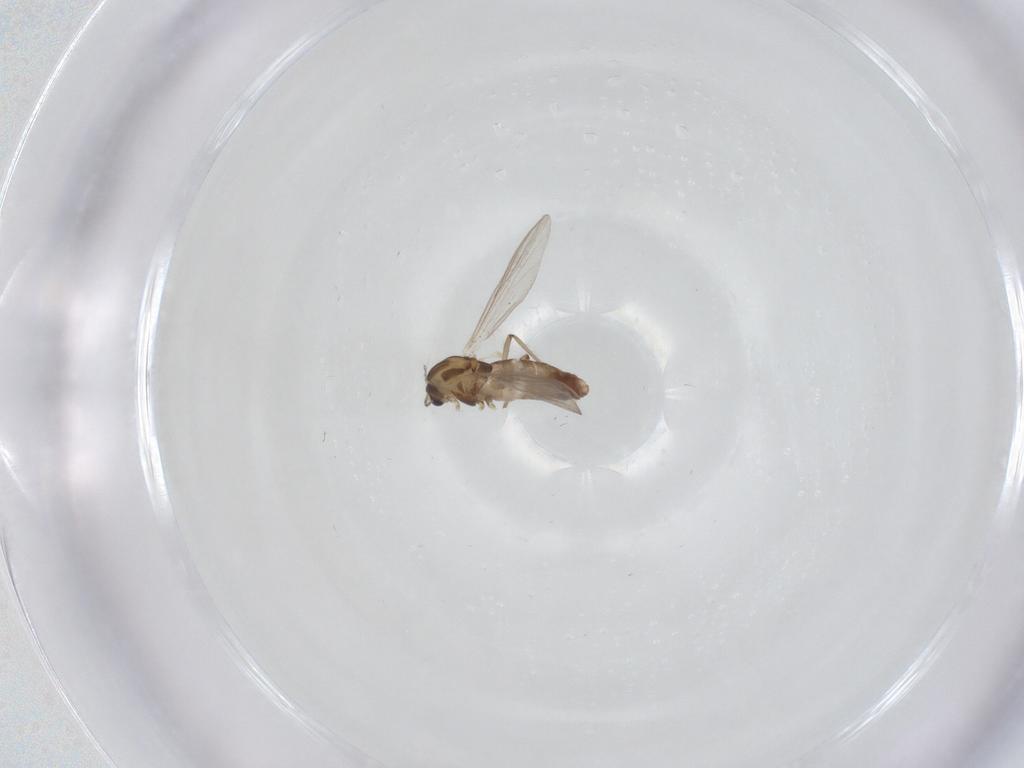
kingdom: Animalia
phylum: Arthropoda
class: Insecta
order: Diptera
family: Chironomidae
